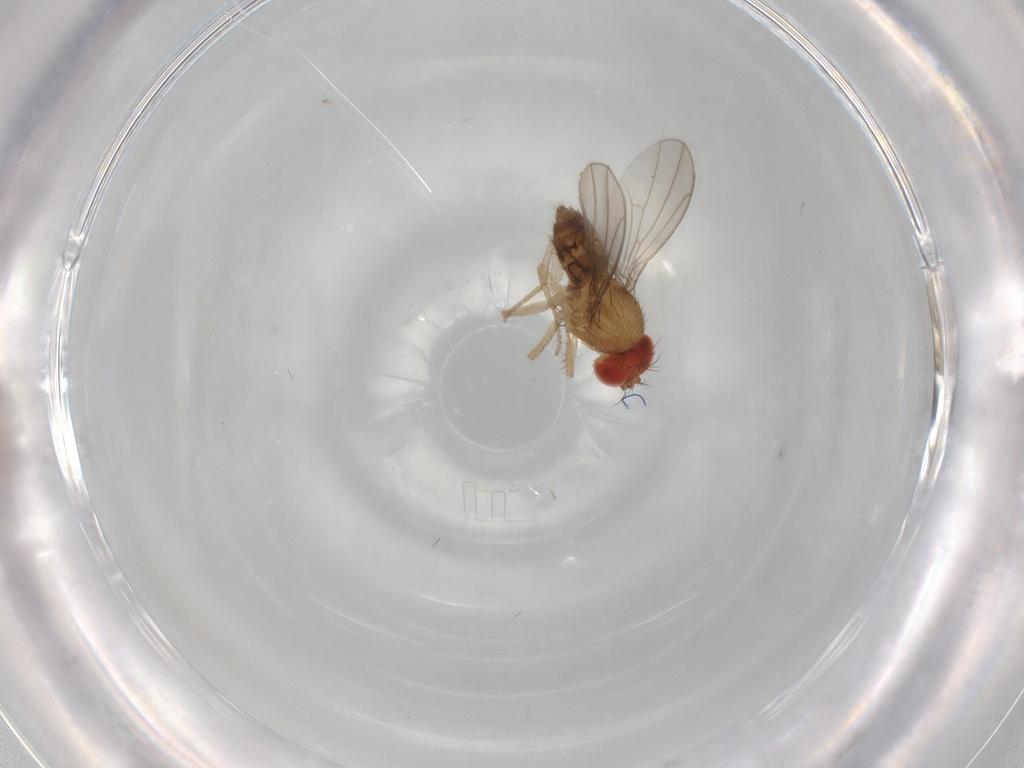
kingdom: Animalia
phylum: Arthropoda
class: Insecta
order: Diptera
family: Drosophilidae
